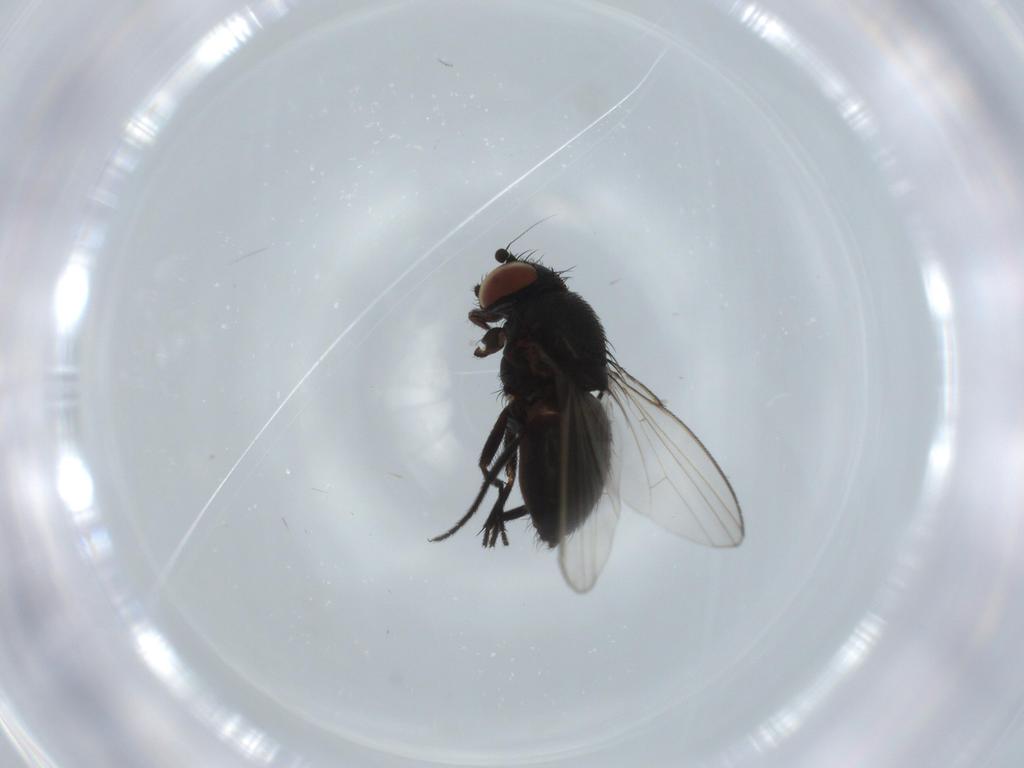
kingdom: Animalia
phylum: Arthropoda
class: Insecta
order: Diptera
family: Milichiidae
